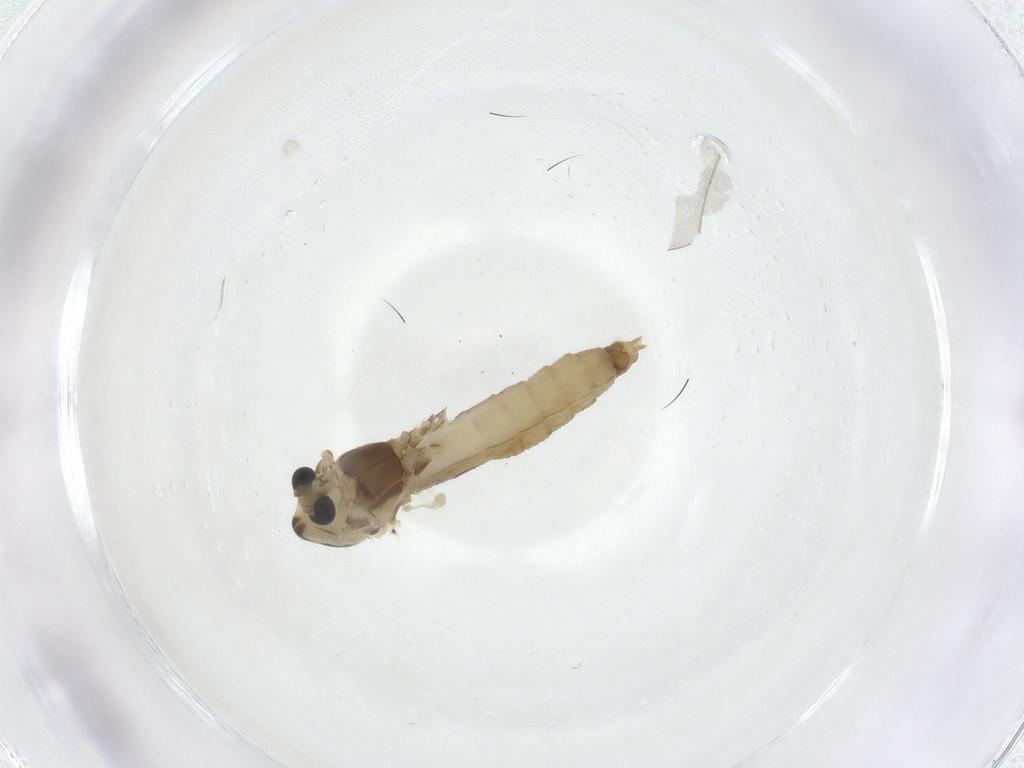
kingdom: Animalia
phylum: Arthropoda
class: Insecta
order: Diptera
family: Chironomidae
